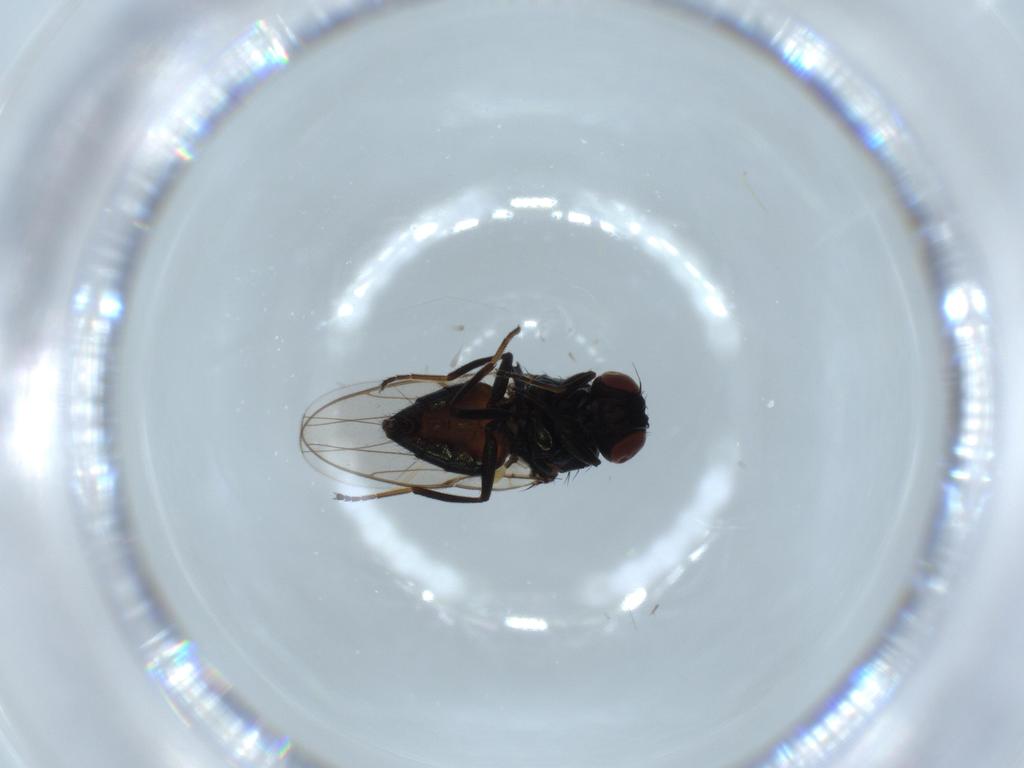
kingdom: Animalia
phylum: Arthropoda
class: Insecta
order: Diptera
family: Chloropidae
